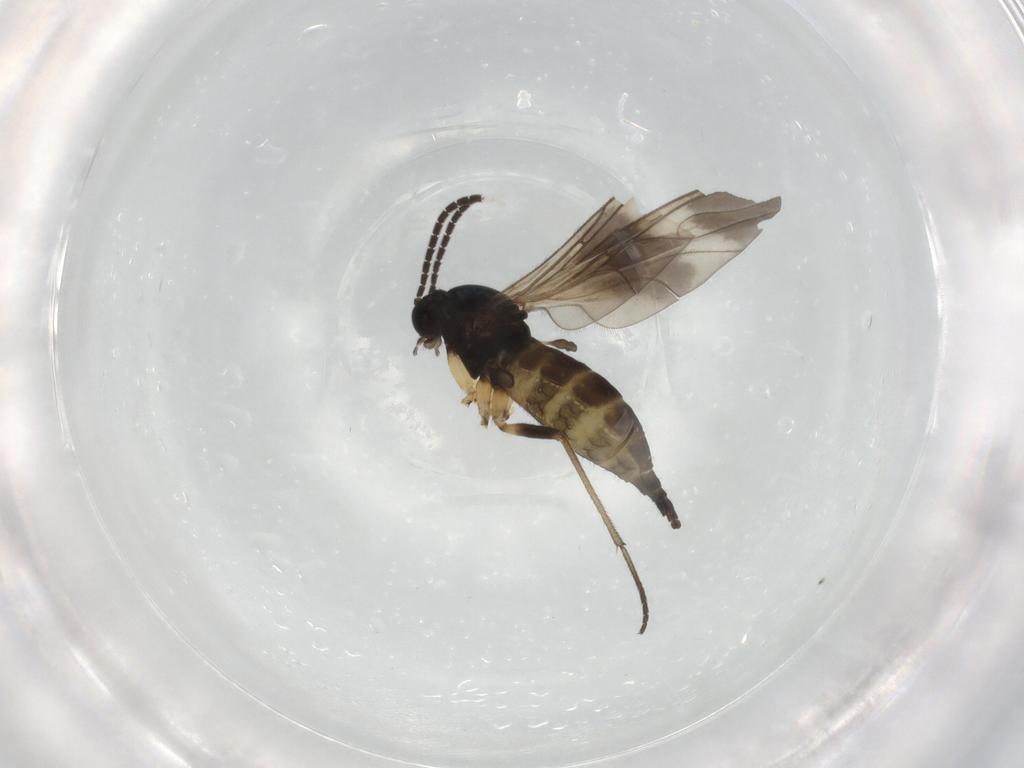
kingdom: Animalia
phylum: Arthropoda
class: Insecta
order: Diptera
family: Sciaridae
